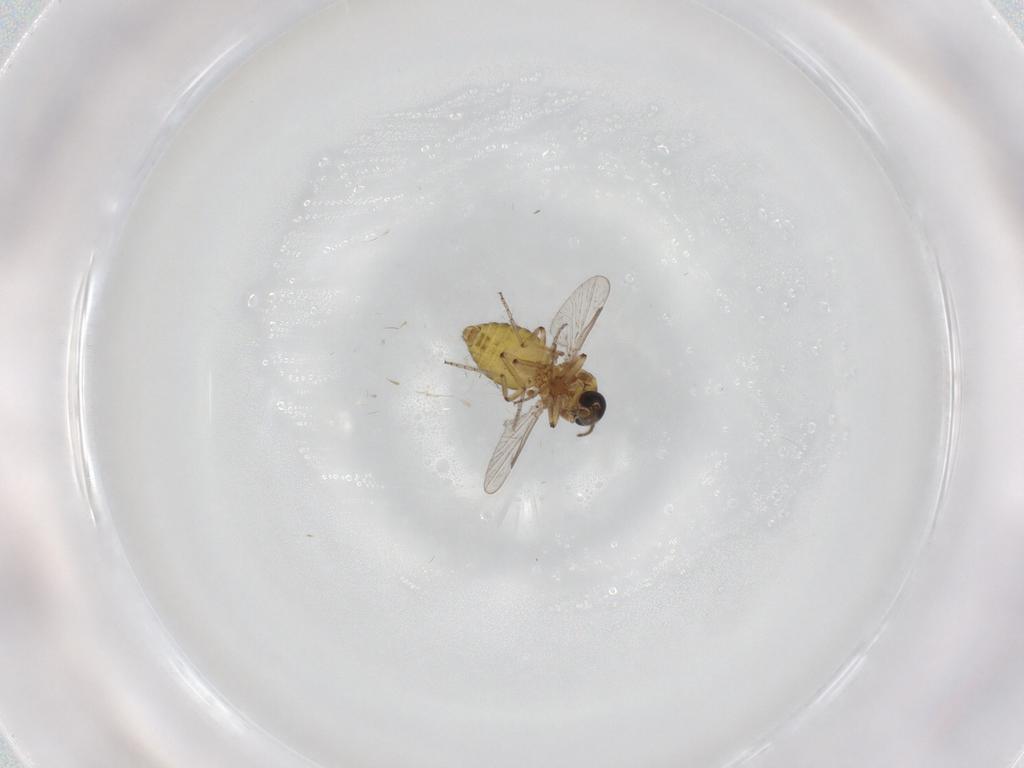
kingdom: Animalia
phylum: Arthropoda
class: Insecta
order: Diptera
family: Ceratopogonidae
